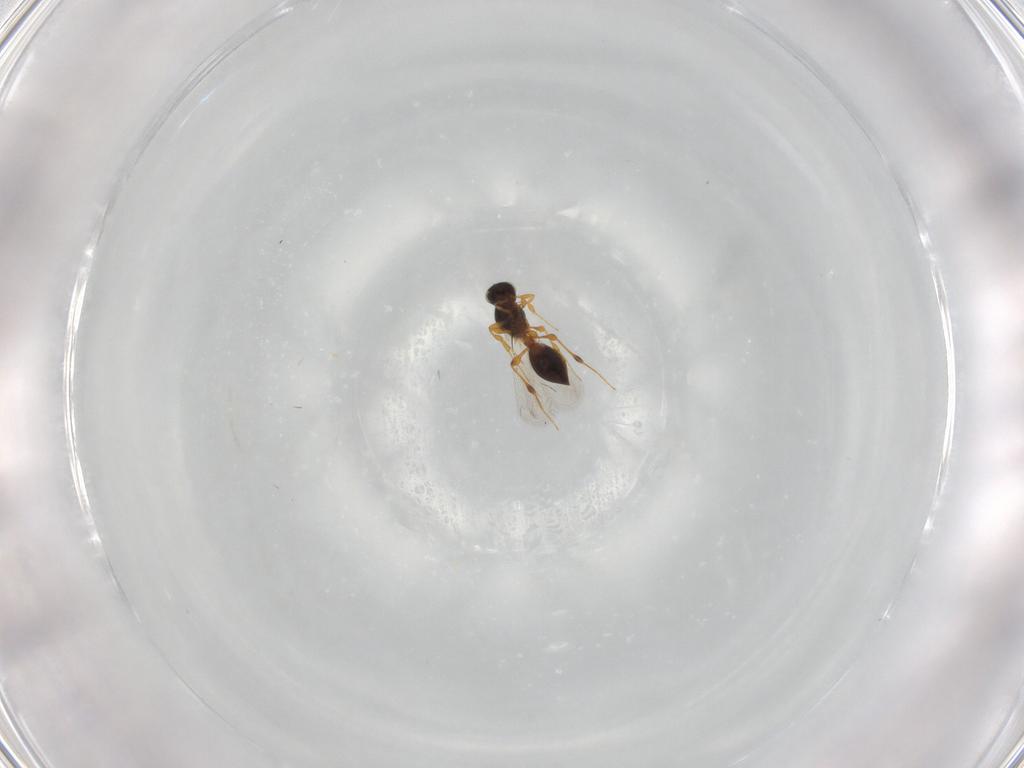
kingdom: Animalia
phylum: Arthropoda
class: Insecta
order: Hymenoptera
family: Platygastridae
